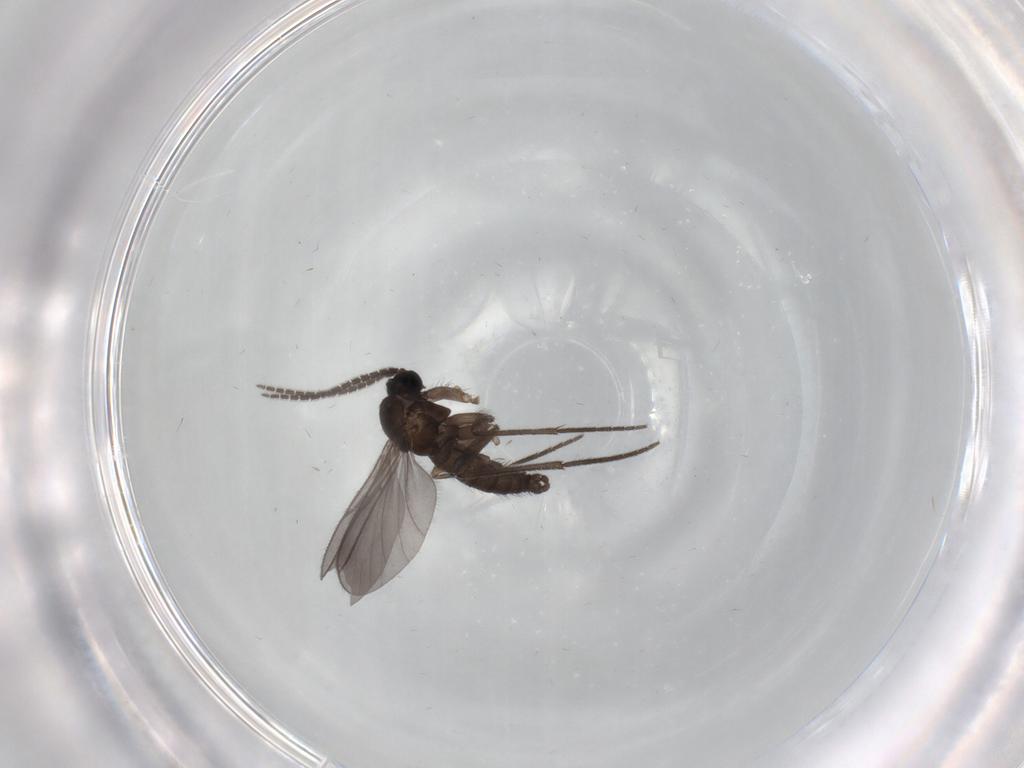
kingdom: Animalia
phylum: Arthropoda
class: Insecta
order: Diptera
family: Sciaridae
